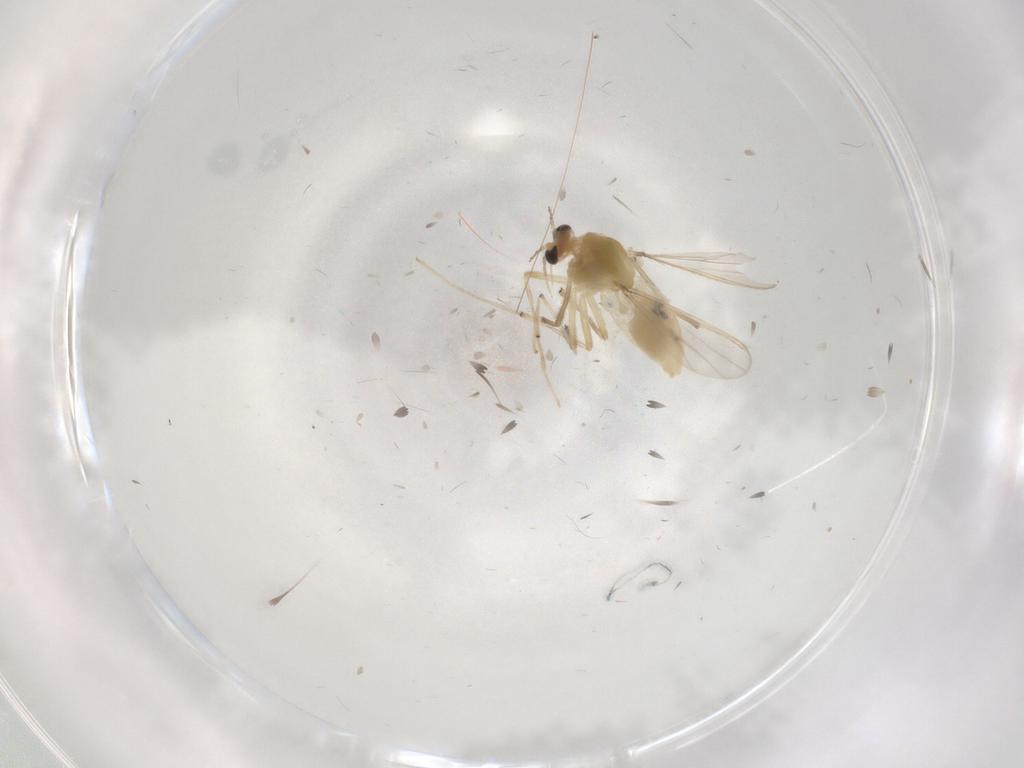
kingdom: Animalia
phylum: Arthropoda
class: Insecta
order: Diptera
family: Chironomidae
